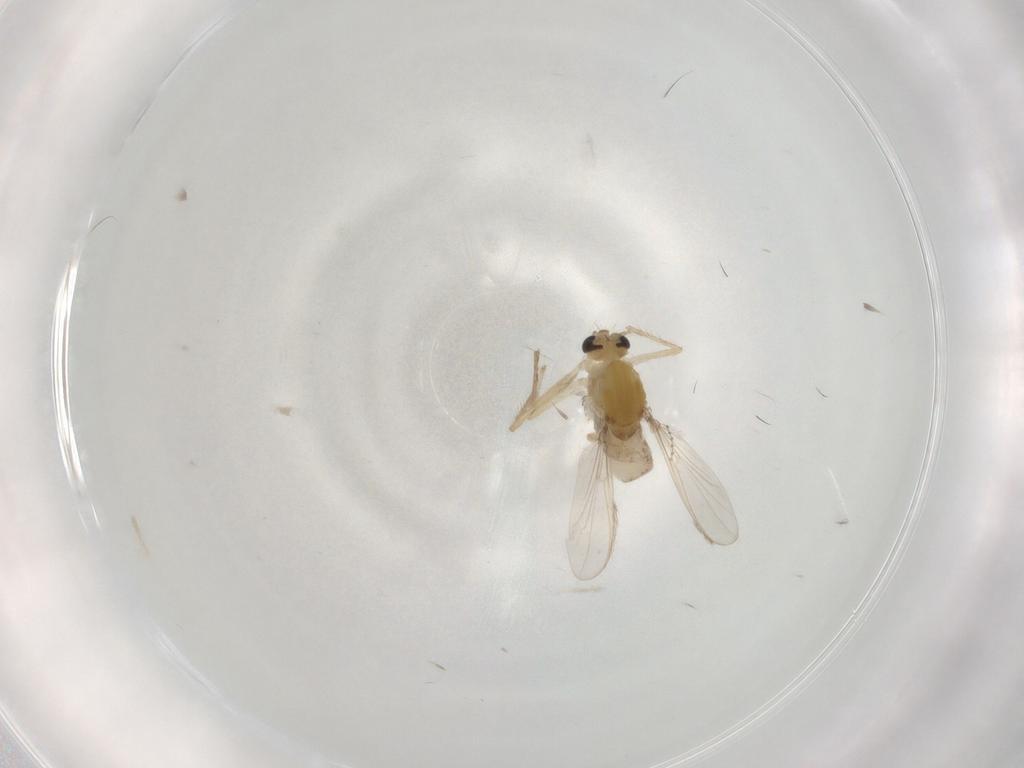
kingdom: Animalia
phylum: Arthropoda
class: Insecta
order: Diptera
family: Chironomidae
